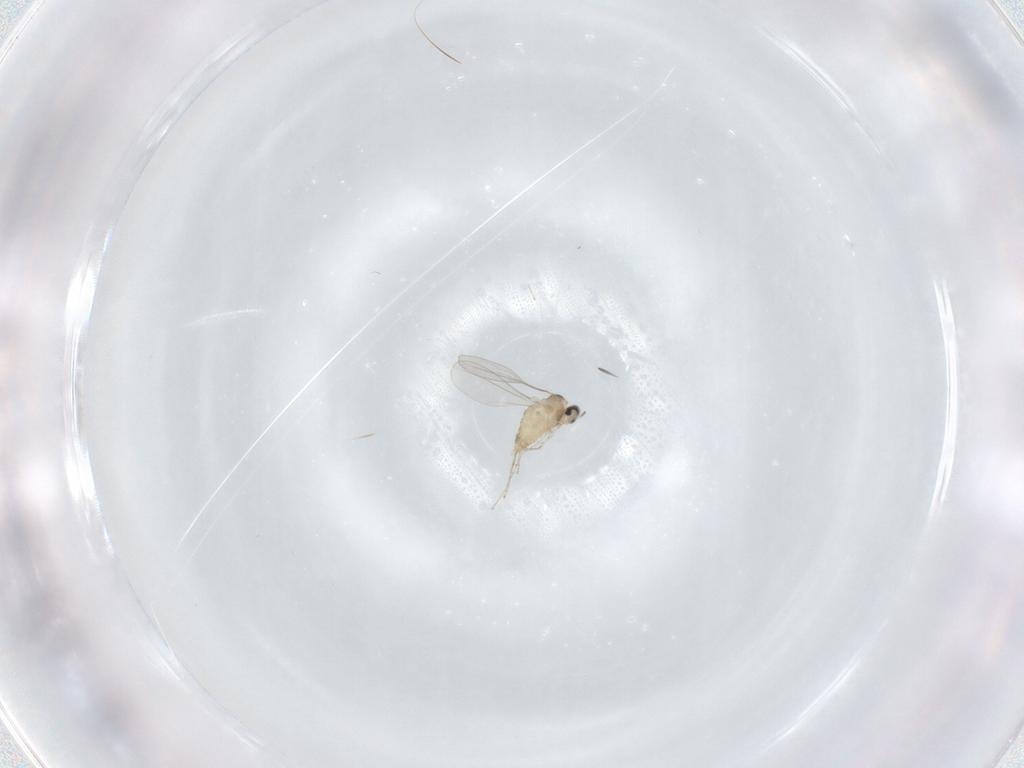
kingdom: Animalia
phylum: Arthropoda
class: Insecta
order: Diptera
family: Cecidomyiidae
